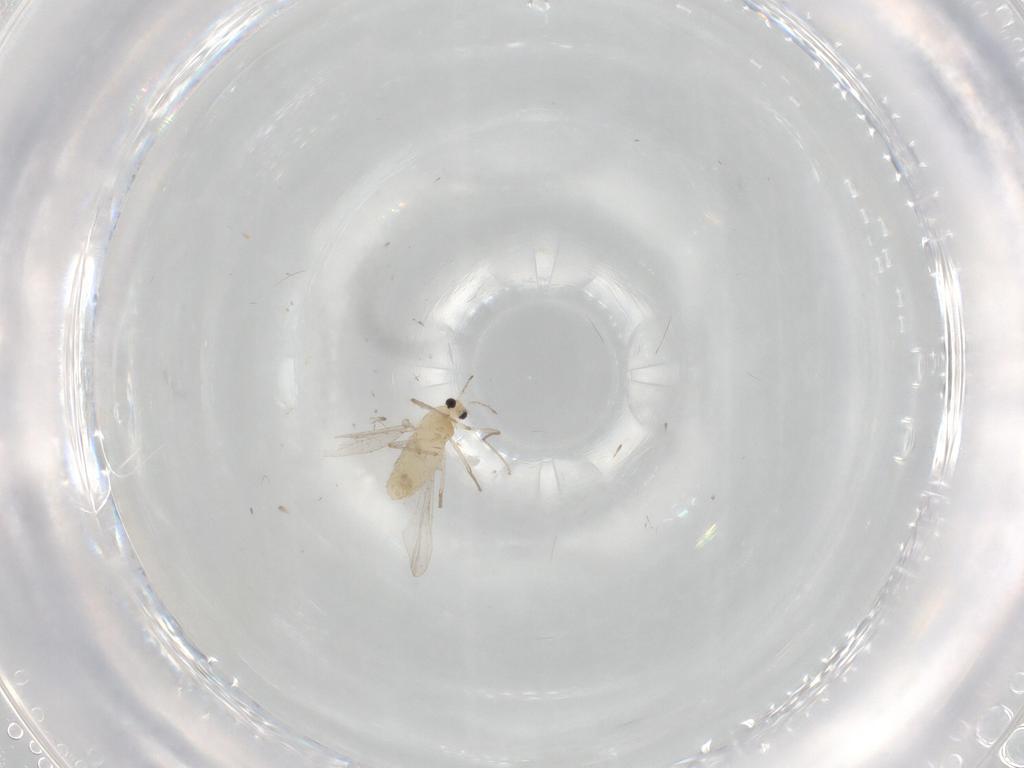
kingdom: Animalia
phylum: Arthropoda
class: Insecta
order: Diptera
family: Chironomidae
